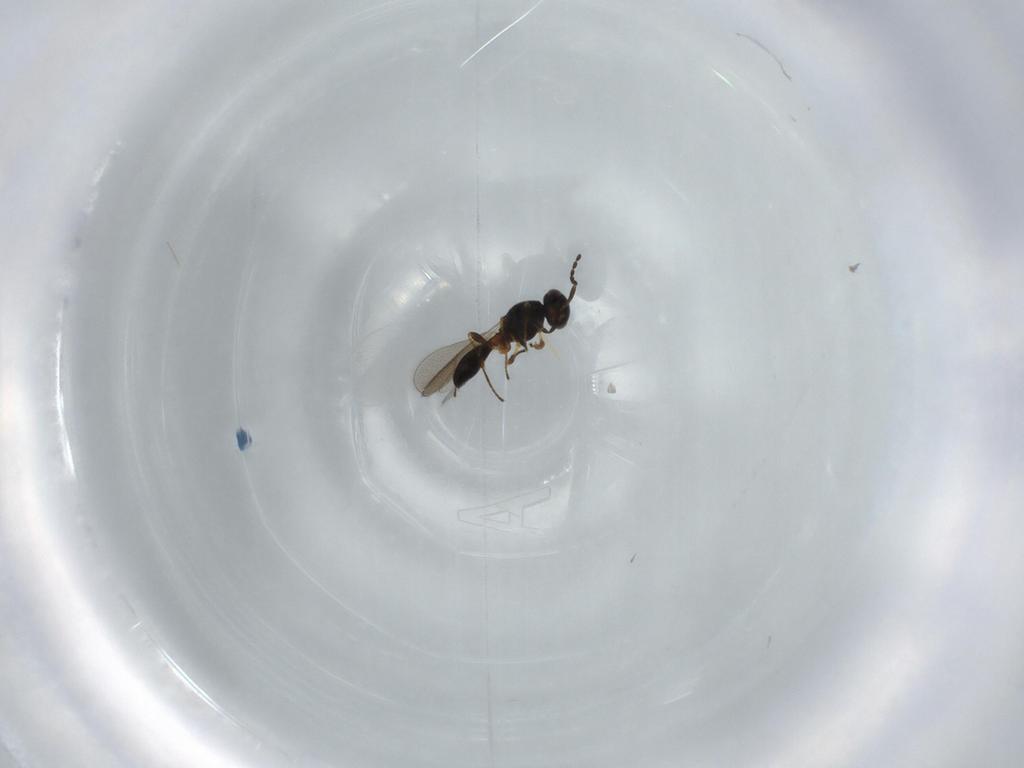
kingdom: Animalia
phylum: Arthropoda
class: Insecta
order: Hymenoptera
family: Platygastridae
